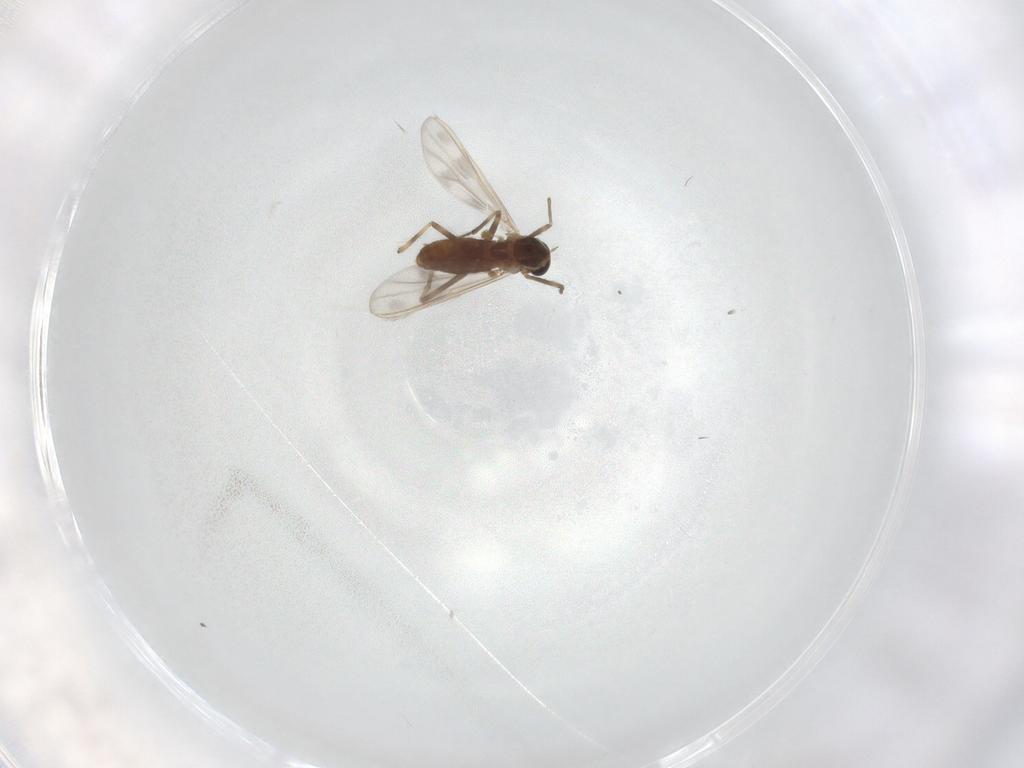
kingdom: Animalia
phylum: Arthropoda
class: Insecta
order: Diptera
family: Chironomidae
